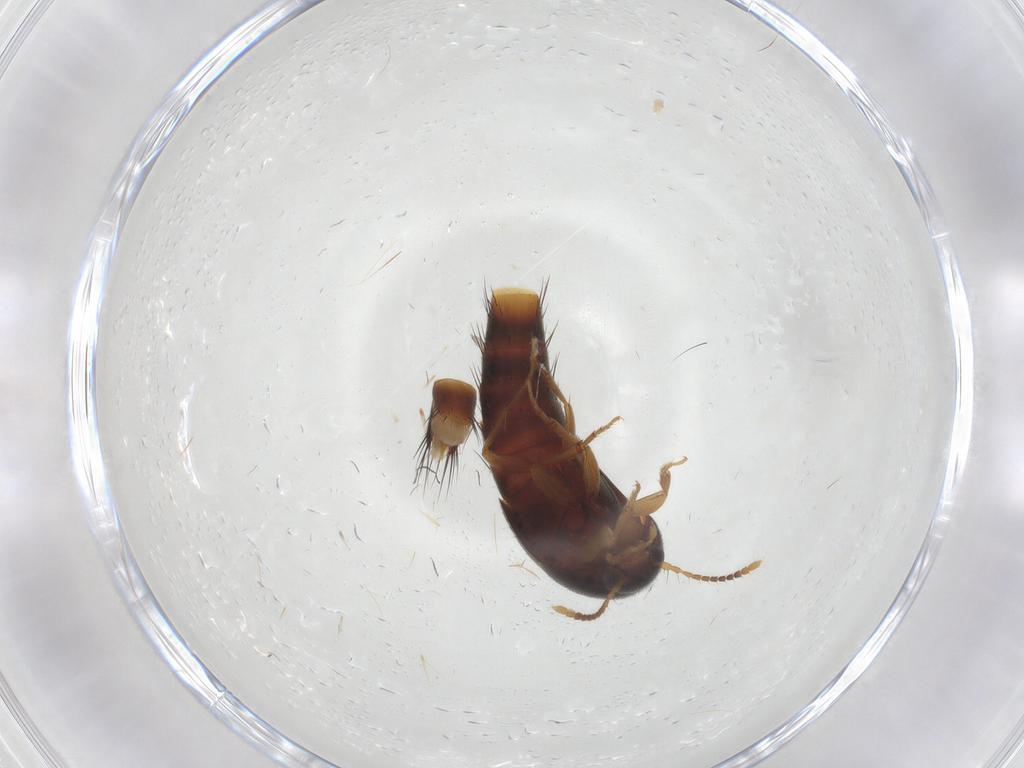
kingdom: Animalia
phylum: Arthropoda
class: Insecta
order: Coleoptera
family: Staphylinidae
